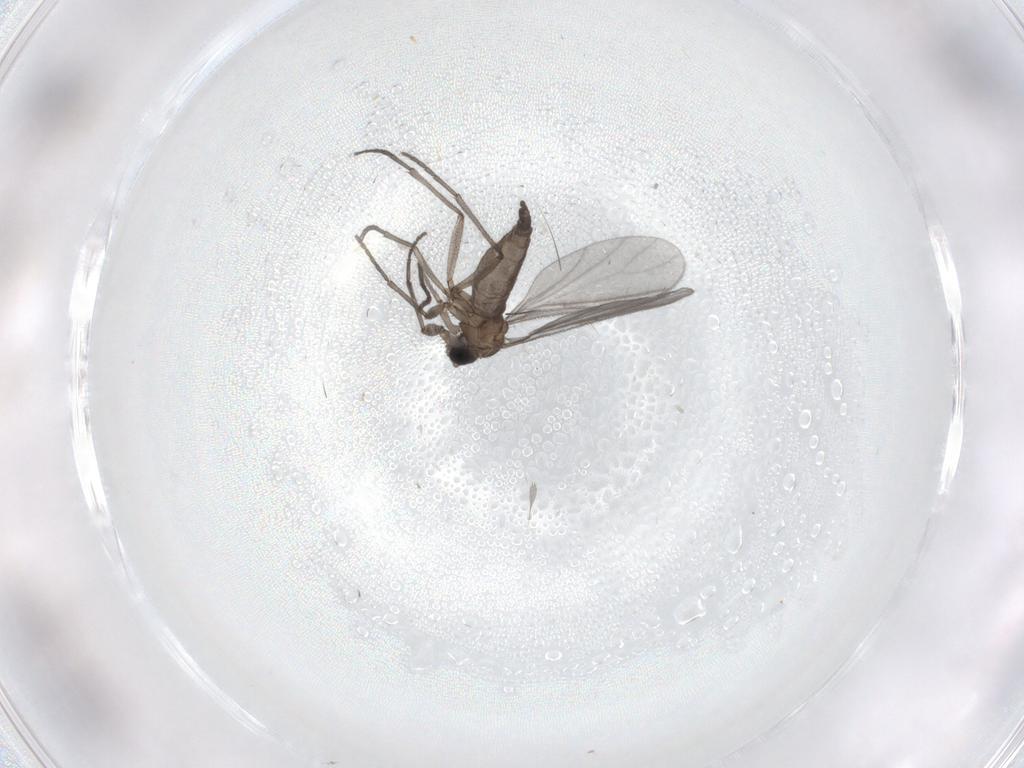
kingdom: Animalia
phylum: Arthropoda
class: Insecta
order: Diptera
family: Sciaridae
